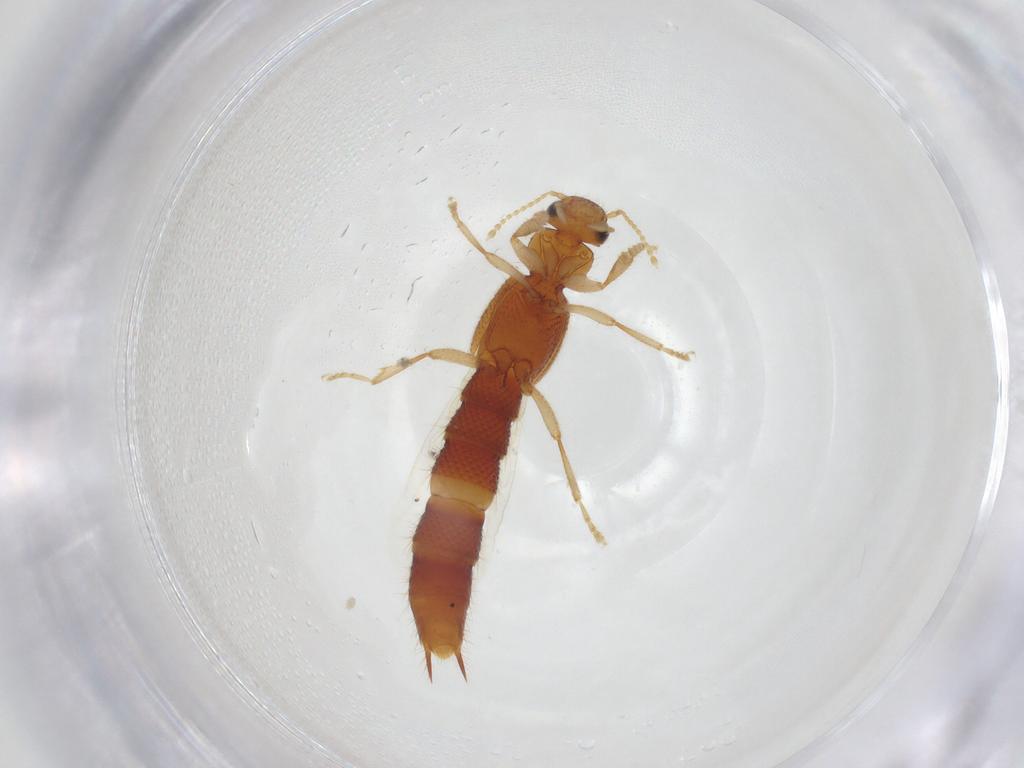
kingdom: Animalia
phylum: Arthropoda
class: Insecta
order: Coleoptera
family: Staphylinidae
